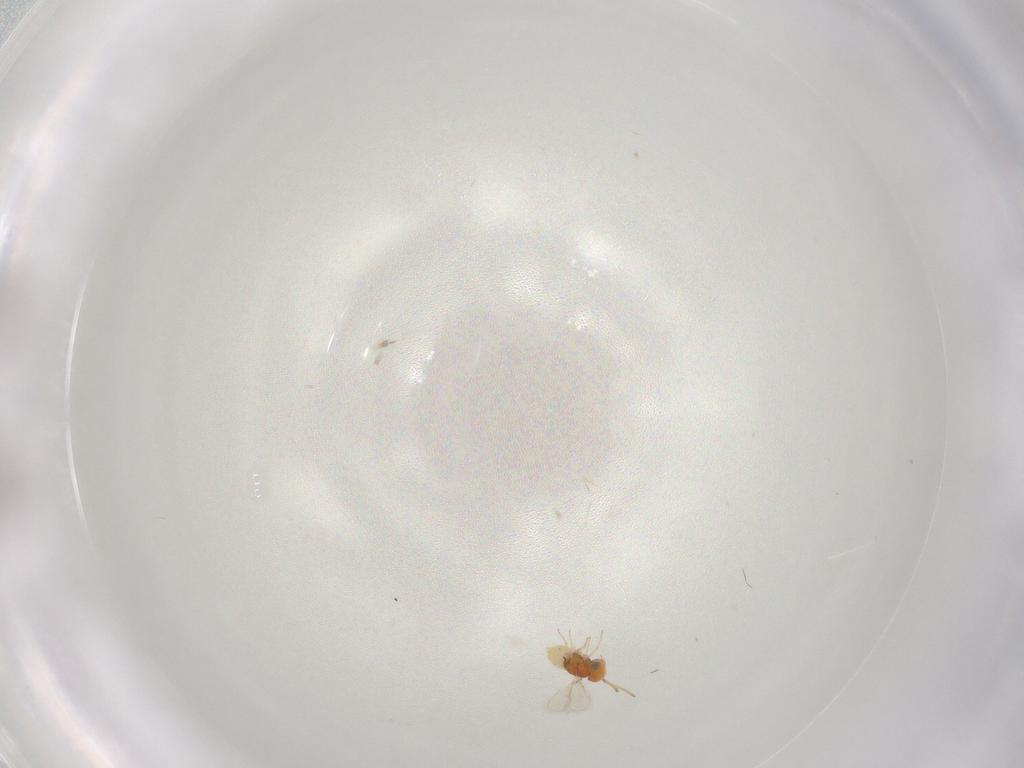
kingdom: Animalia
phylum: Arthropoda
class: Insecta
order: Hymenoptera
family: Aphelinidae
